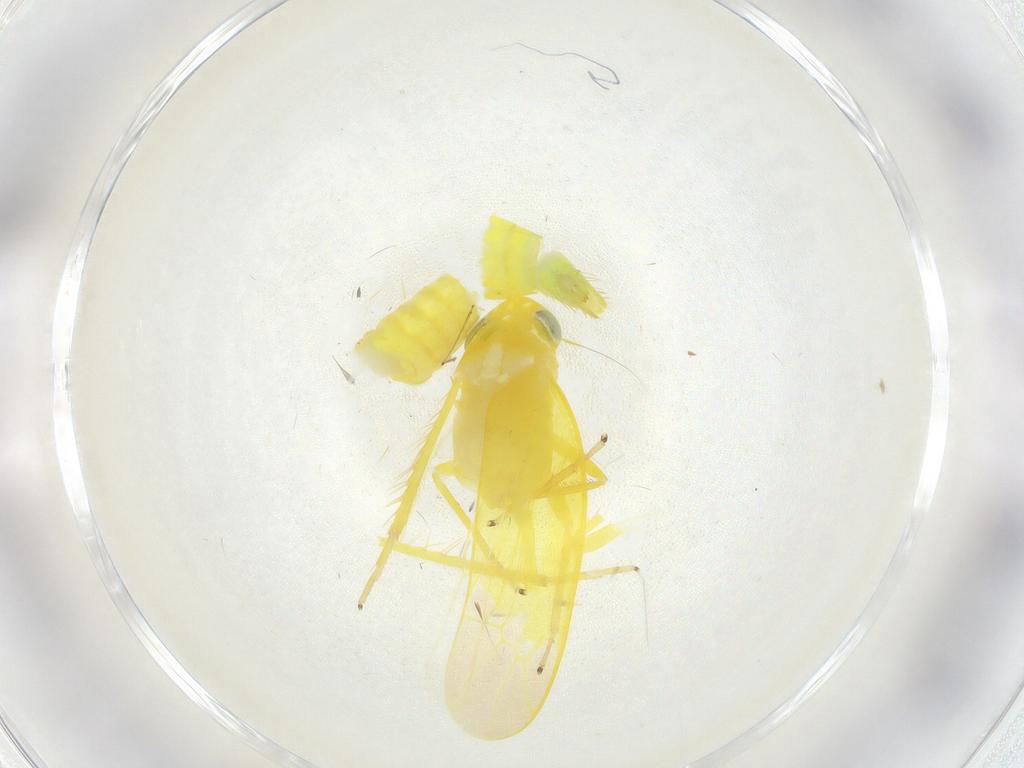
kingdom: Animalia
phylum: Arthropoda
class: Insecta
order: Hemiptera
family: Cicadellidae
